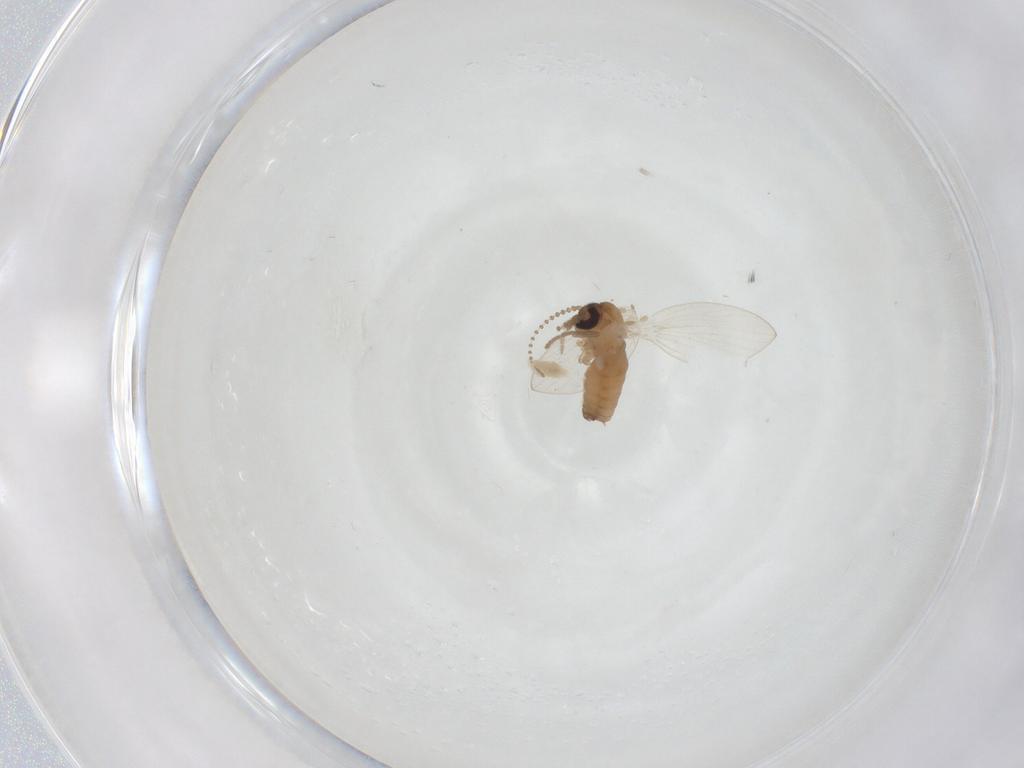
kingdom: Animalia
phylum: Arthropoda
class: Insecta
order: Diptera
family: Psychodidae
